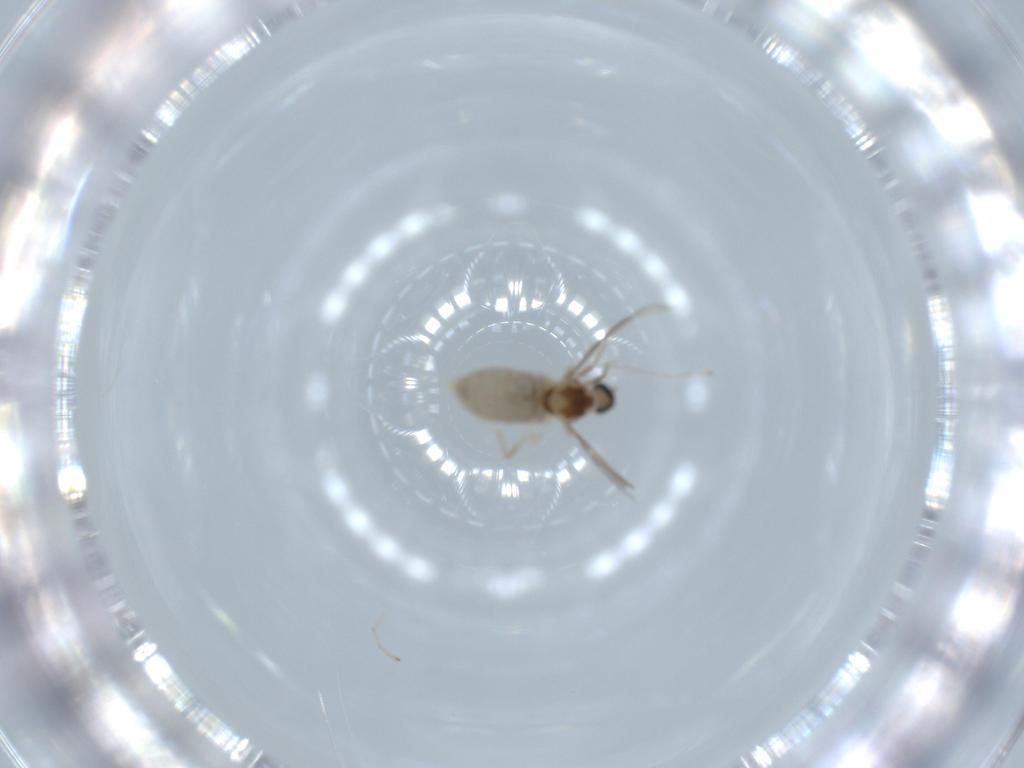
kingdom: Animalia
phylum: Arthropoda
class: Insecta
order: Diptera
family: Cecidomyiidae
